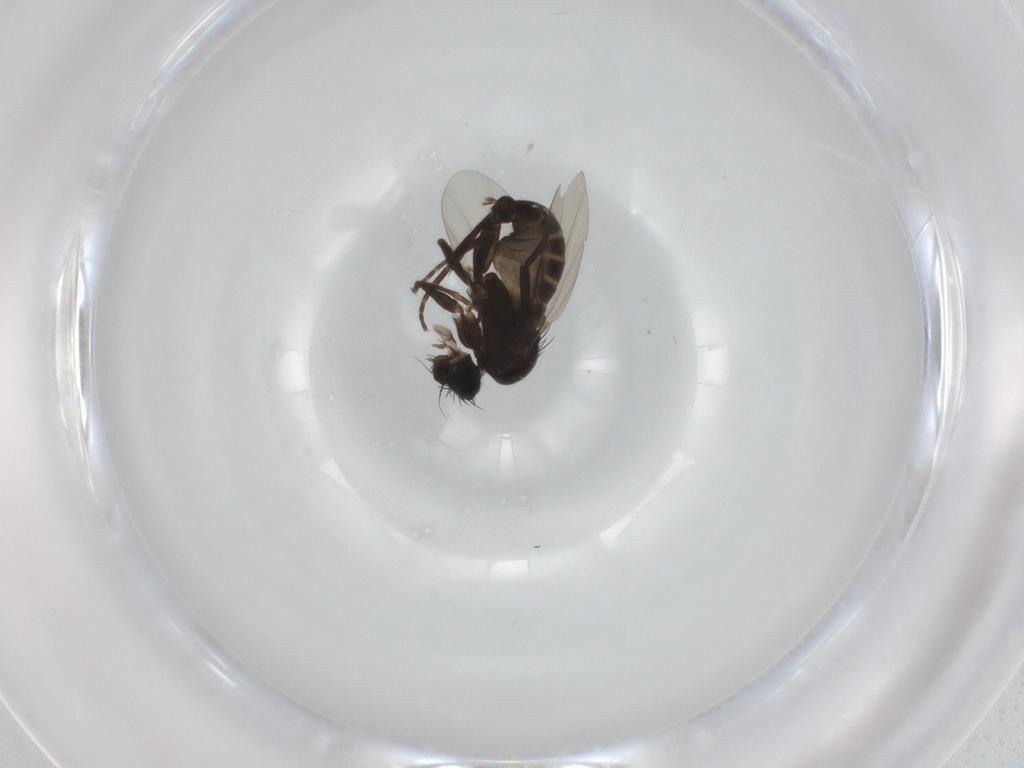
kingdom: Animalia
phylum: Arthropoda
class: Insecta
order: Diptera
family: Phoridae
